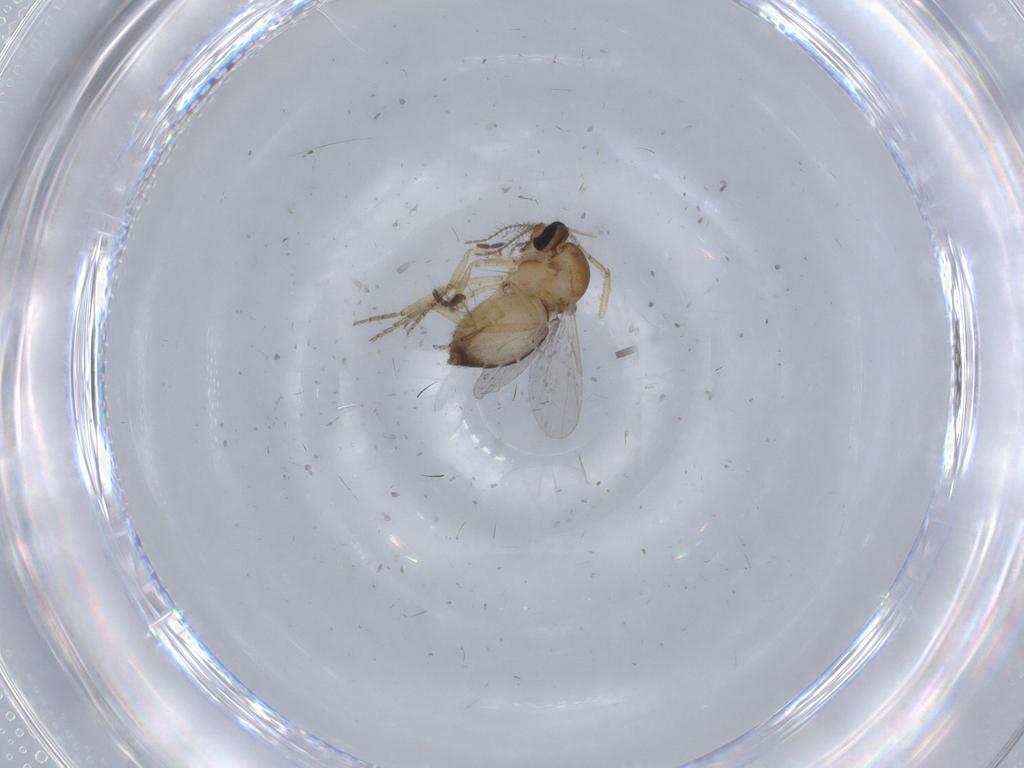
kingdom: Animalia
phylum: Arthropoda
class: Insecta
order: Diptera
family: Ceratopogonidae
